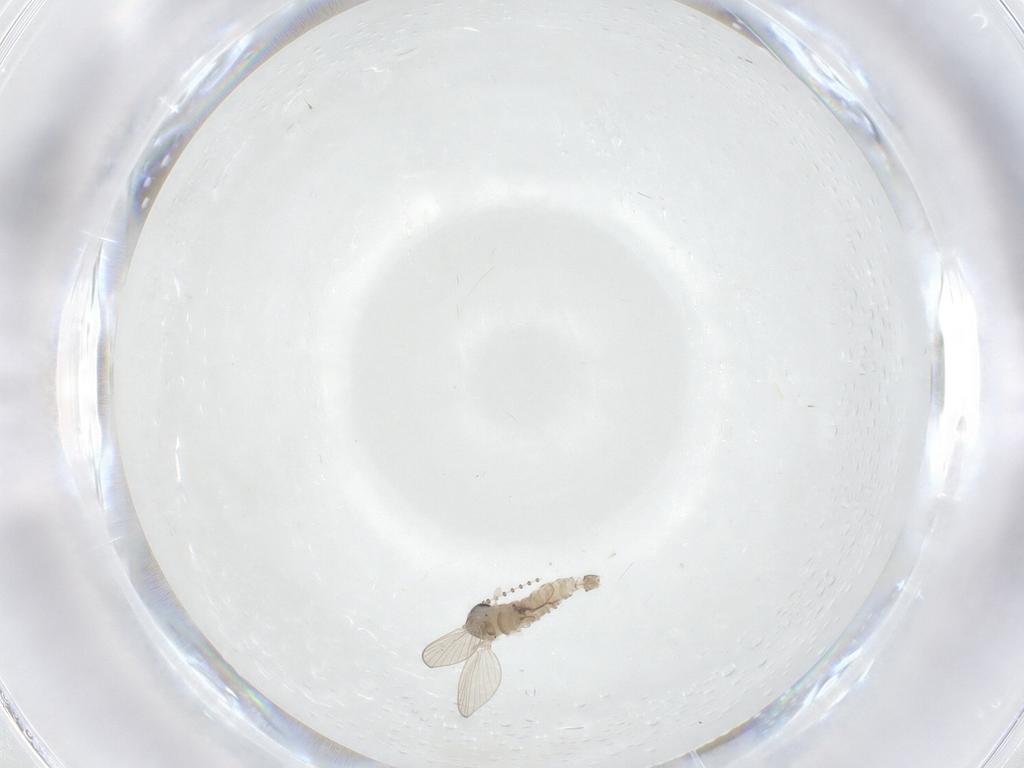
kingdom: Animalia
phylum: Arthropoda
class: Insecta
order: Diptera
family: Psychodidae
